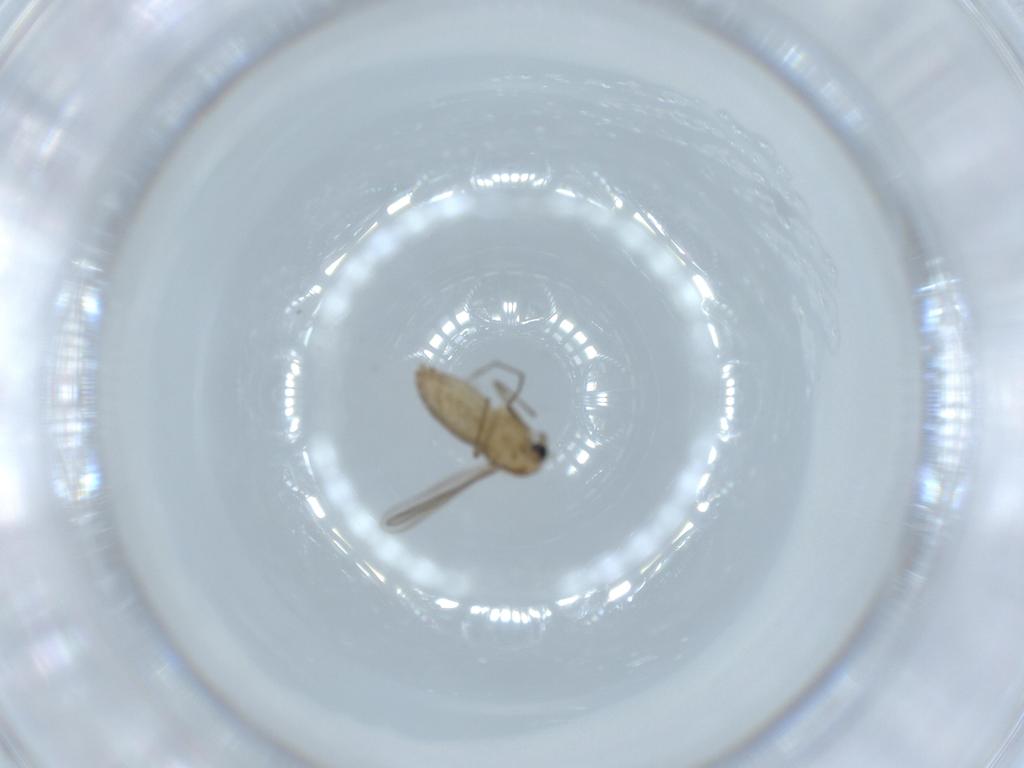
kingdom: Animalia
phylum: Arthropoda
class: Insecta
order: Diptera
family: Chironomidae
